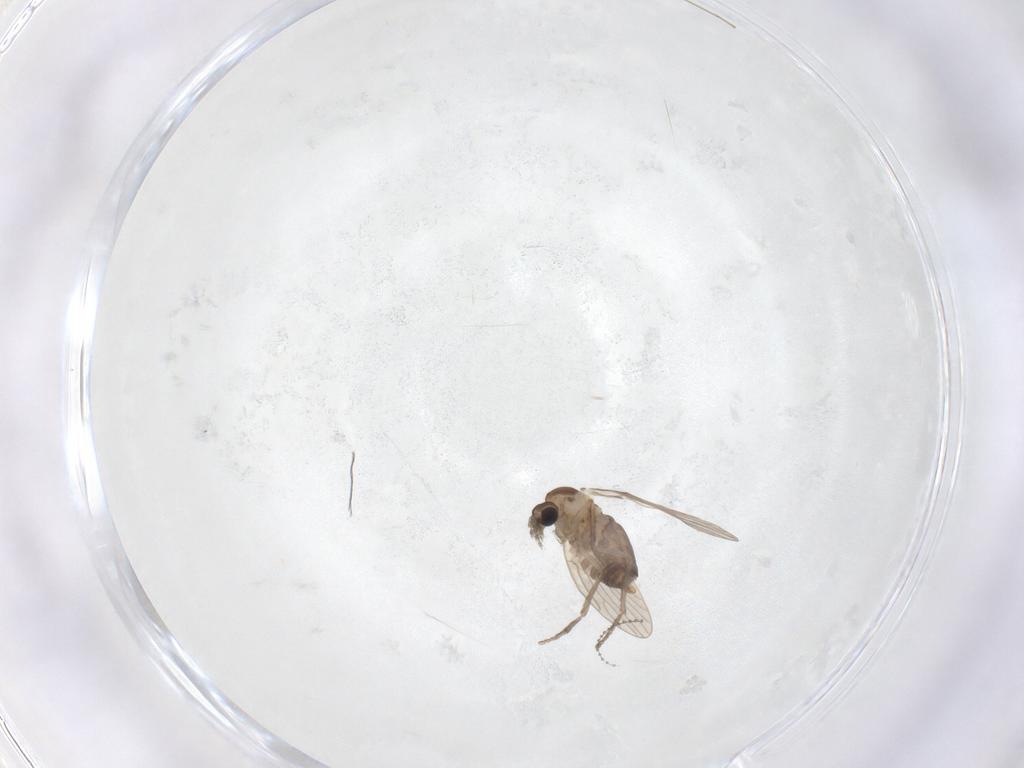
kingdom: Animalia
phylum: Arthropoda
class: Insecta
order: Diptera
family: Cecidomyiidae
